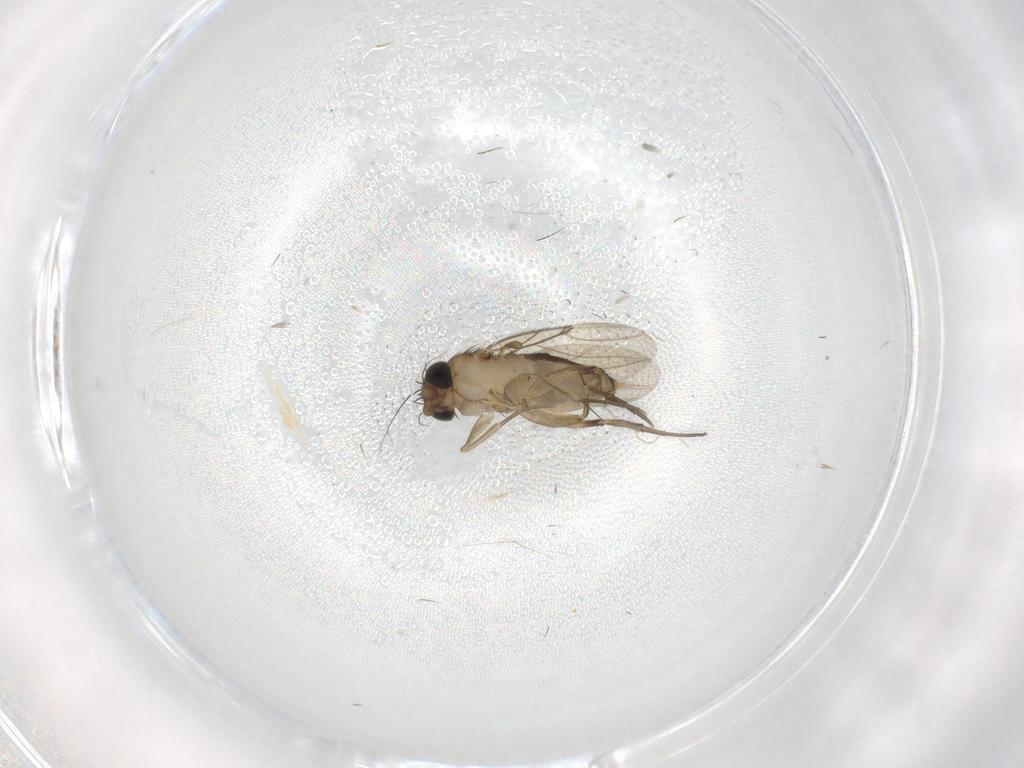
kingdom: Animalia
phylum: Arthropoda
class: Insecta
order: Diptera
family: Phoridae
